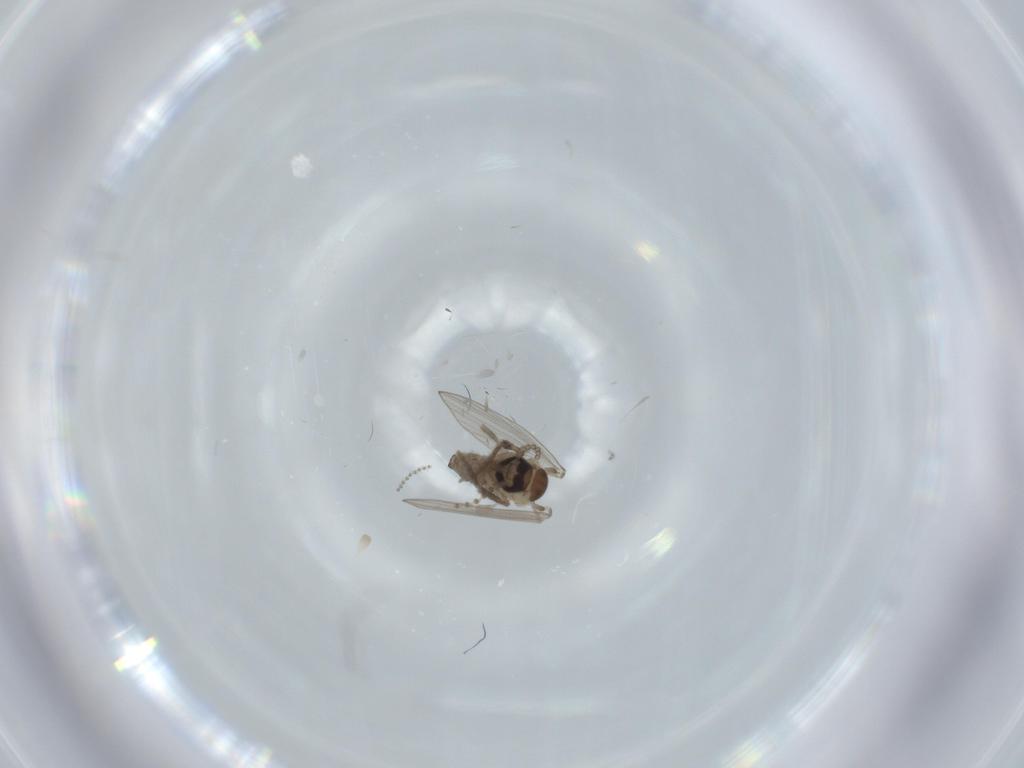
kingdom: Animalia
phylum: Arthropoda
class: Insecta
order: Diptera
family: Psychodidae
